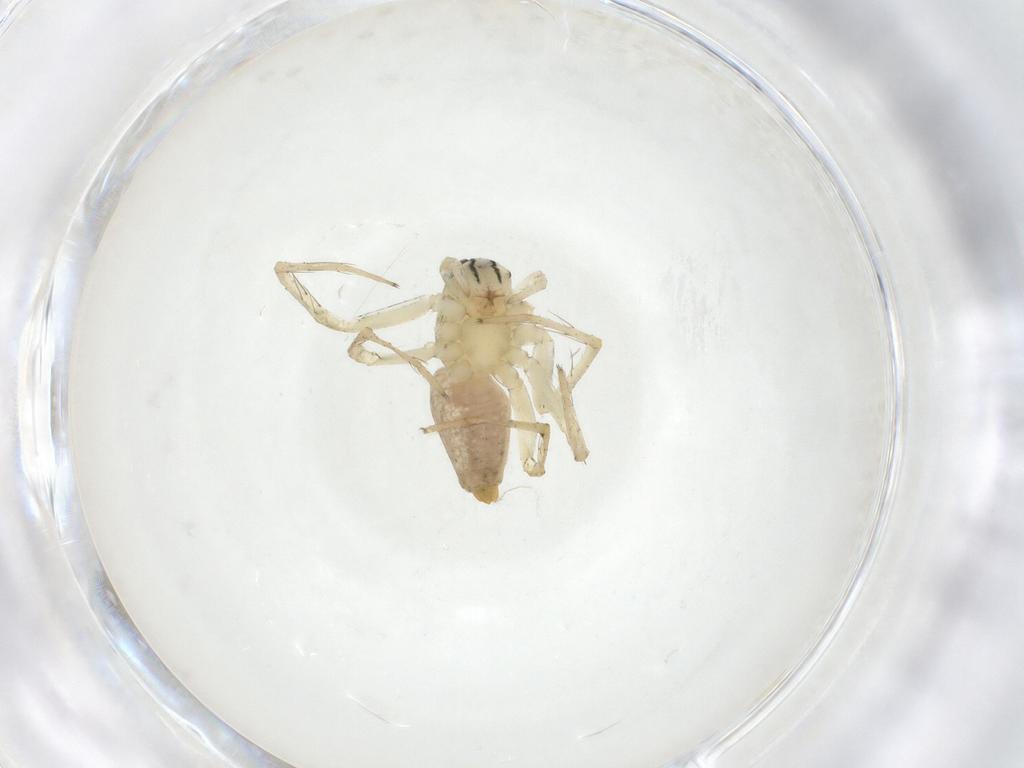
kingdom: Animalia
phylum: Arthropoda
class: Arachnida
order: Araneae
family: Oxyopidae
